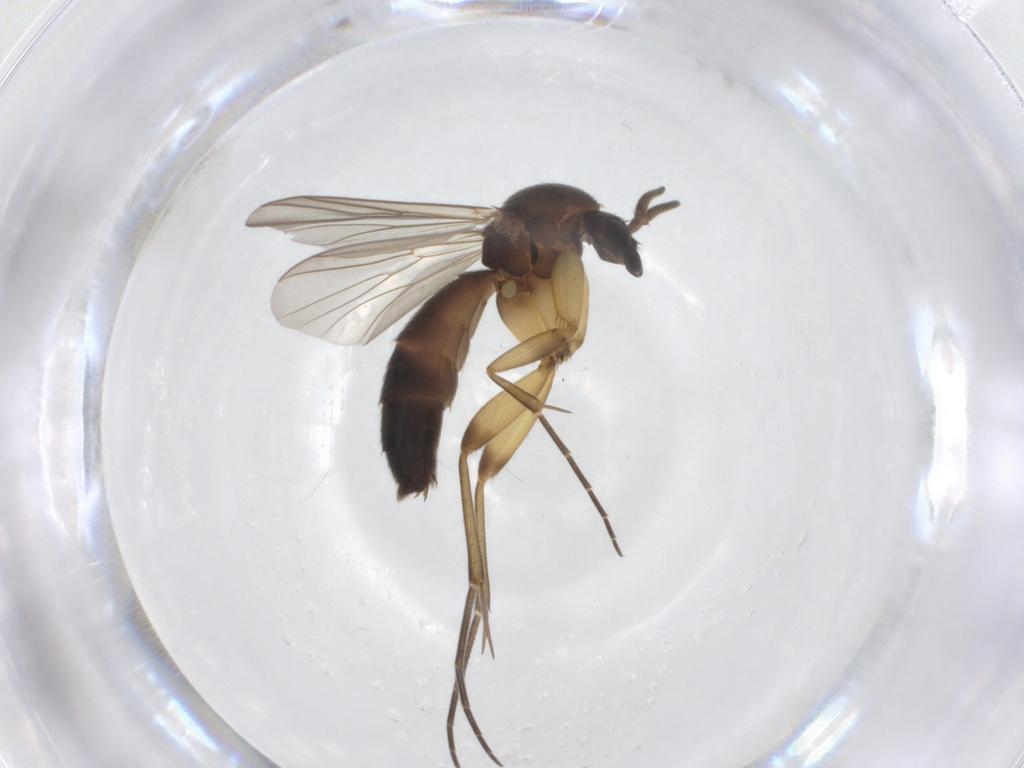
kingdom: Animalia
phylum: Arthropoda
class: Insecta
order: Diptera
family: Mycetophilidae
